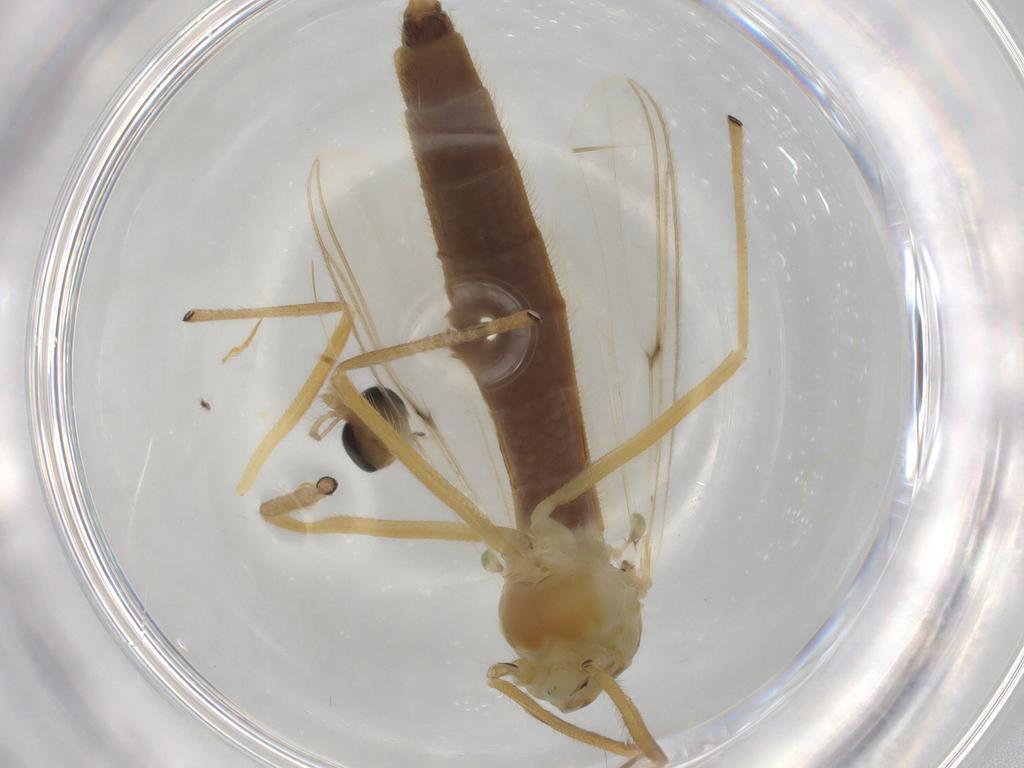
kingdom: Animalia
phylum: Arthropoda
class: Insecta
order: Diptera
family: Chironomidae
